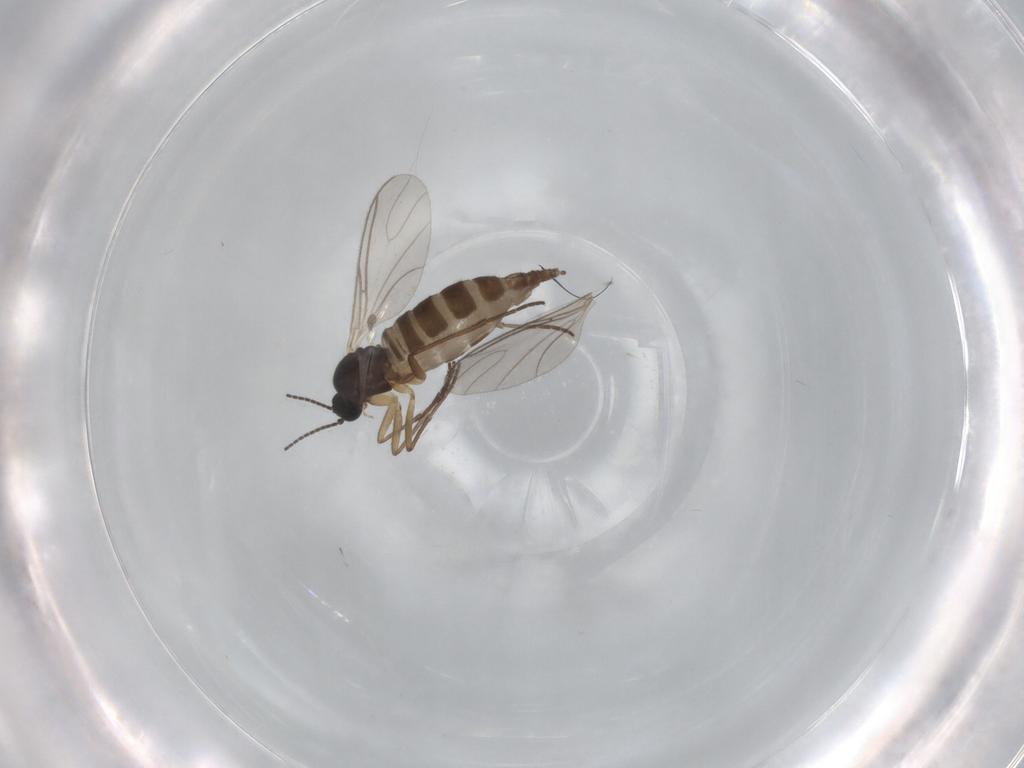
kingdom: Animalia
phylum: Arthropoda
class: Insecta
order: Diptera
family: Sciaridae
